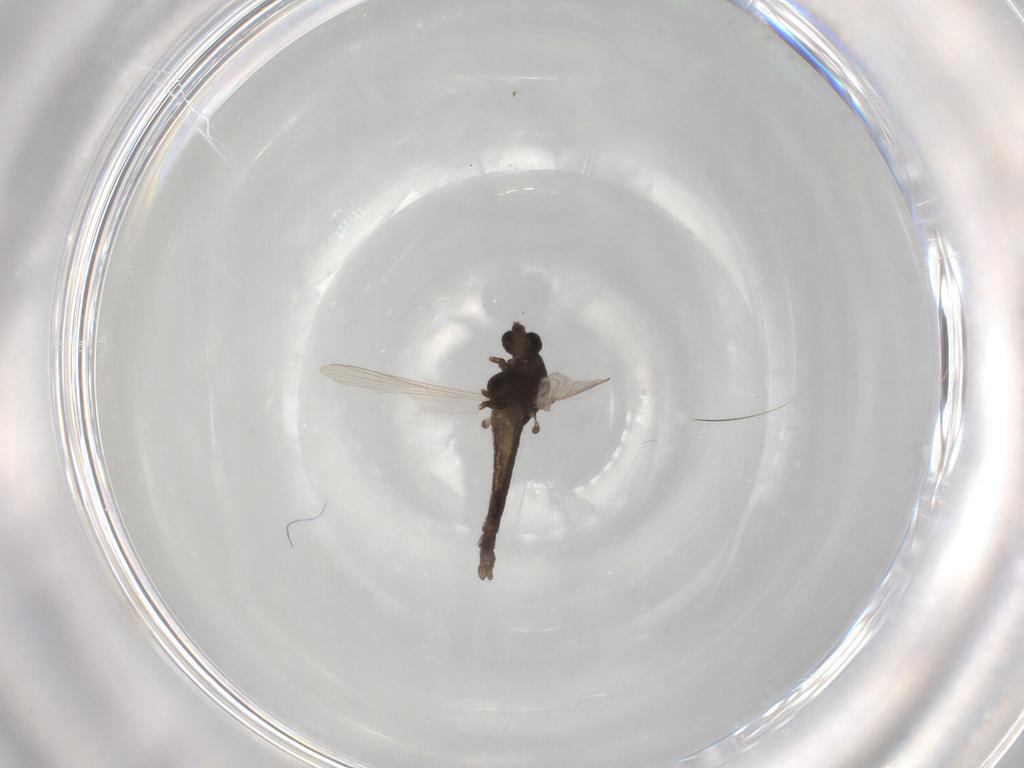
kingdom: Animalia
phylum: Arthropoda
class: Insecta
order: Diptera
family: Chironomidae
